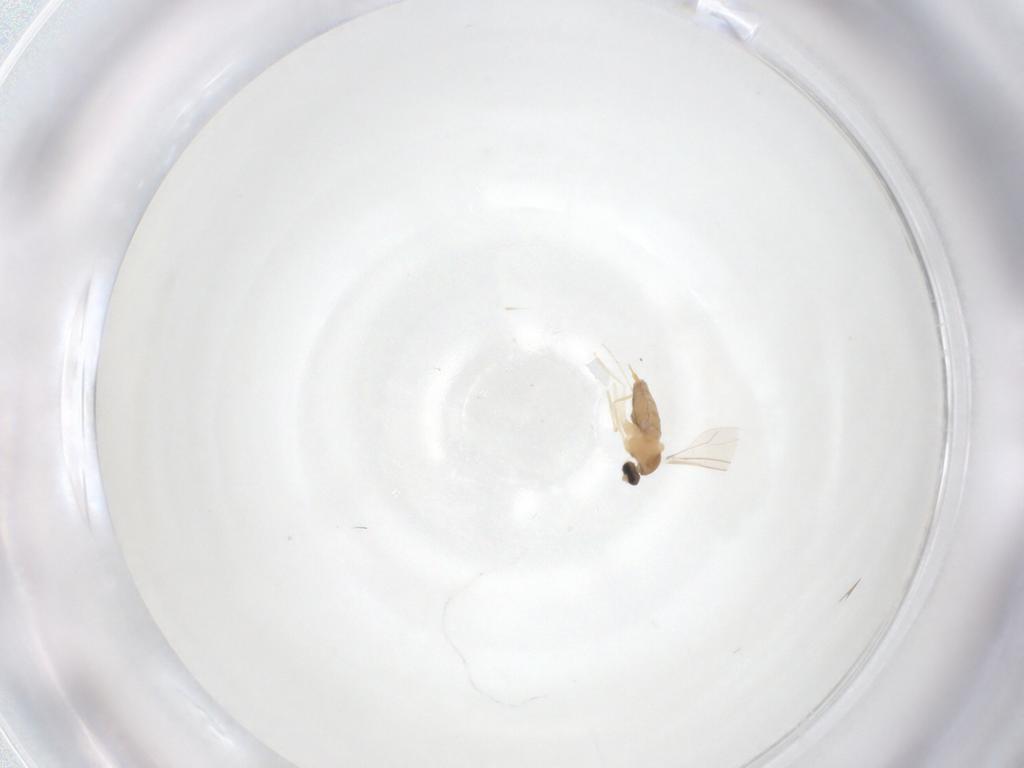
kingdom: Animalia
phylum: Arthropoda
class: Insecta
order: Diptera
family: Cecidomyiidae
